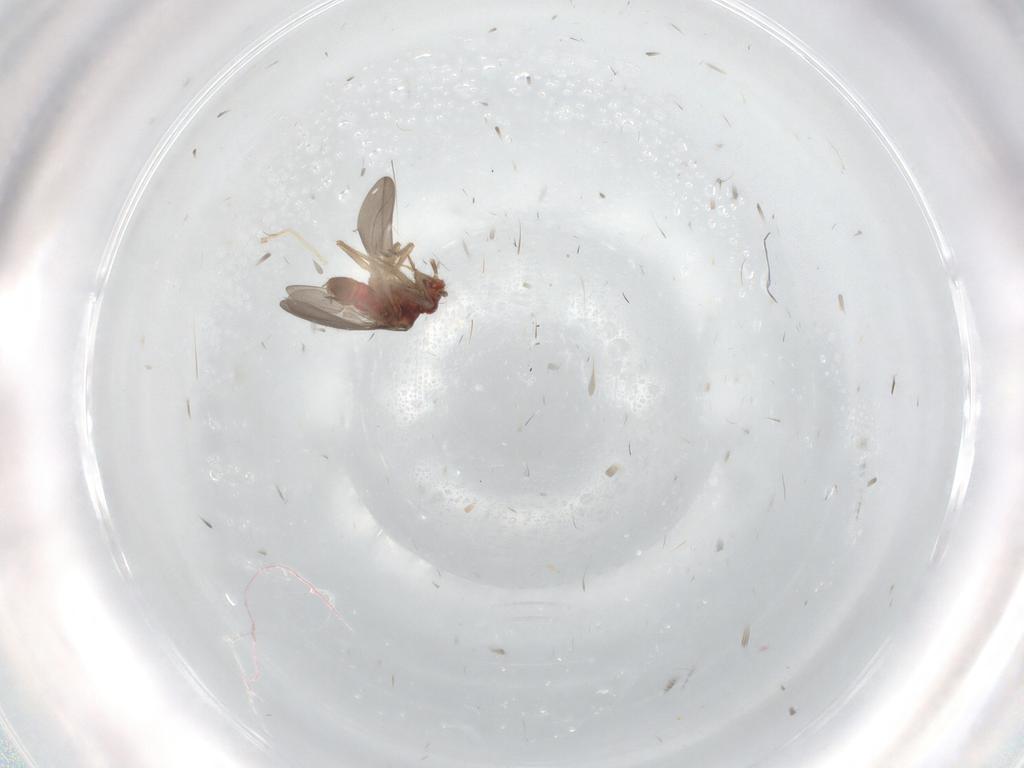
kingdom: Animalia
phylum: Arthropoda
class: Insecta
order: Hemiptera
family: Ceratocombidae
